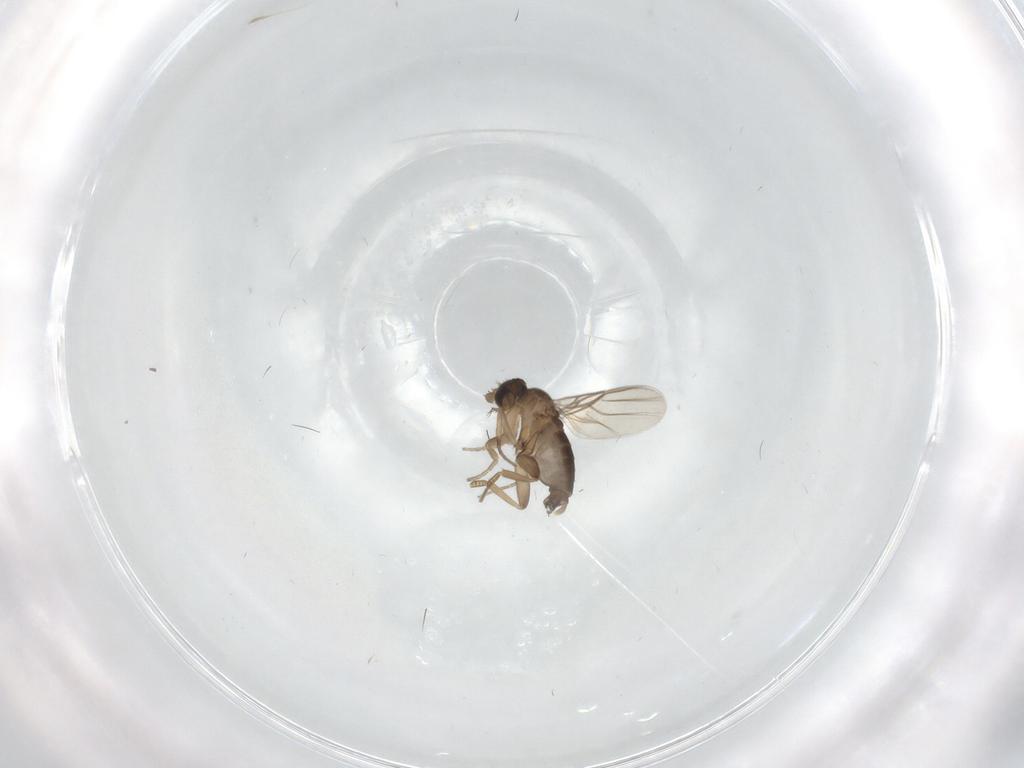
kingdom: Animalia
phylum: Arthropoda
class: Insecta
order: Diptera
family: Phoridae
